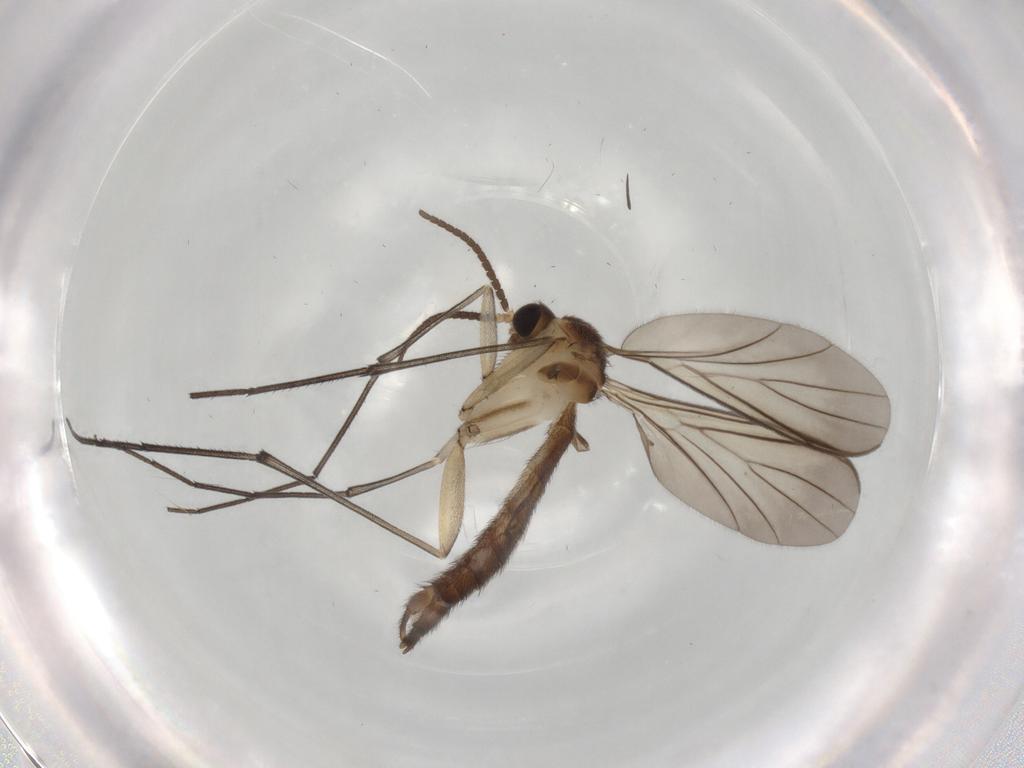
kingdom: Animalia
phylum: Arthropoda
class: Insecta
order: Diptera
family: Keroplatidae
